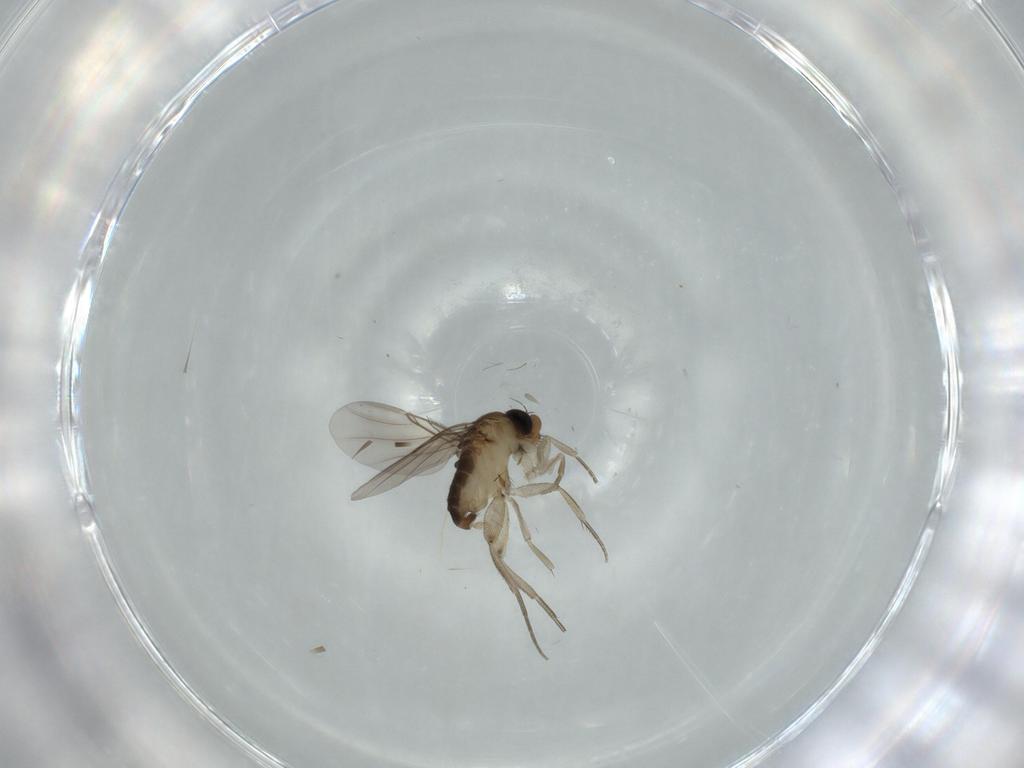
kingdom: Animalia
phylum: Arthropoda
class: Insecta
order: Diptera
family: Phoridae
